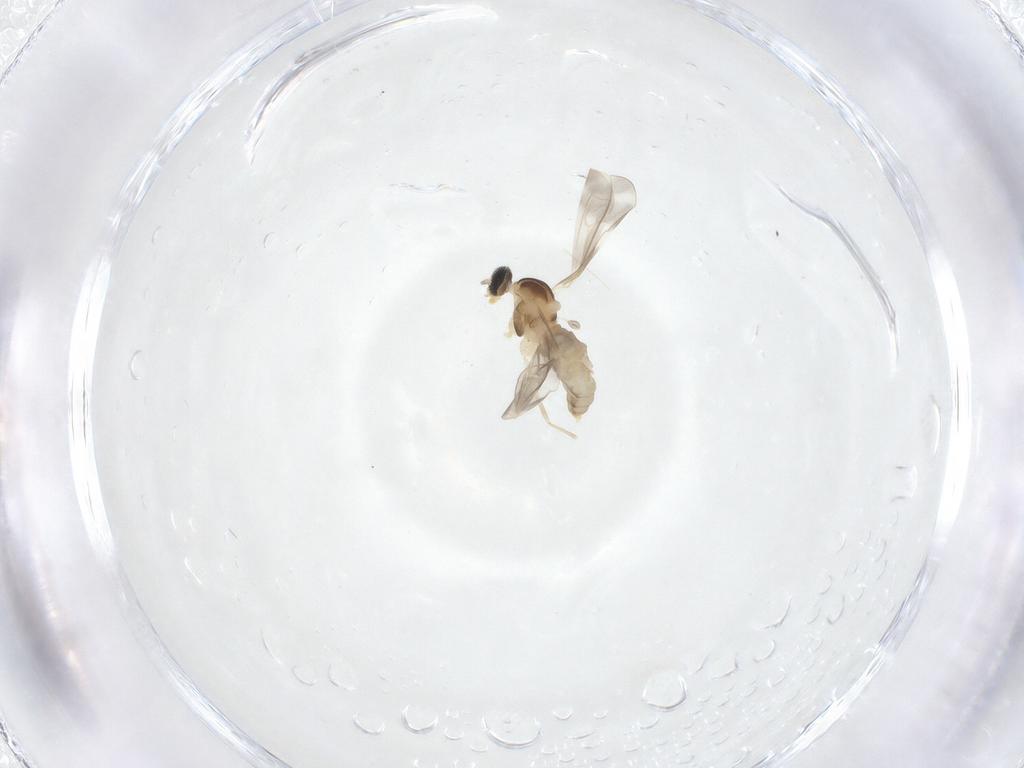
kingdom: Animalia
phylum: Arthropoda
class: Insecta
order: Diptera
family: Cecidomyiidae
